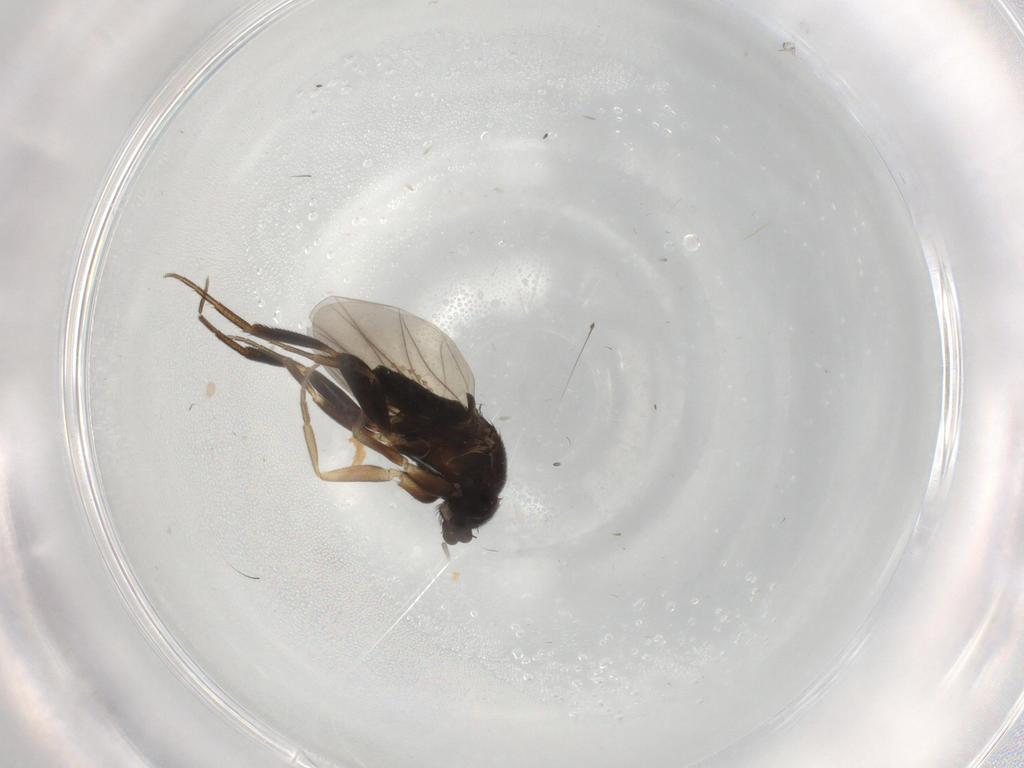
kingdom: Animalia
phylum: Arthropoda
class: Insecta
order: Diptera
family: Cecidomyiidae
